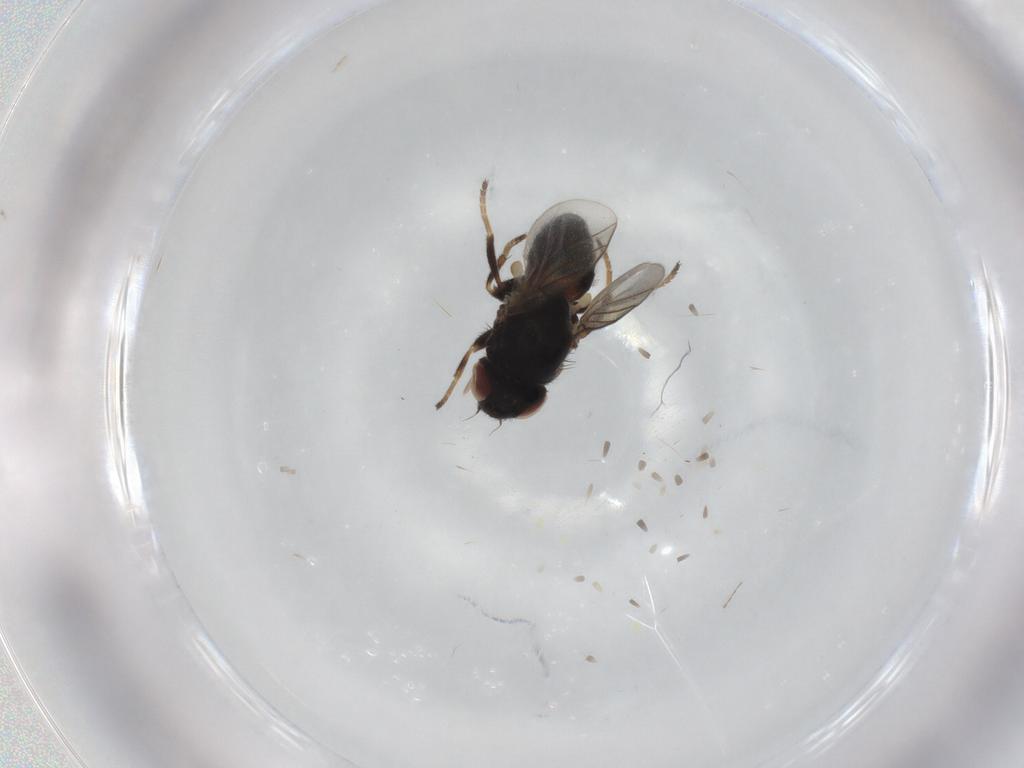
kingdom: Animalia
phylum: Arthropoda
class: Insecta
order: Diptera
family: Chloropidae
